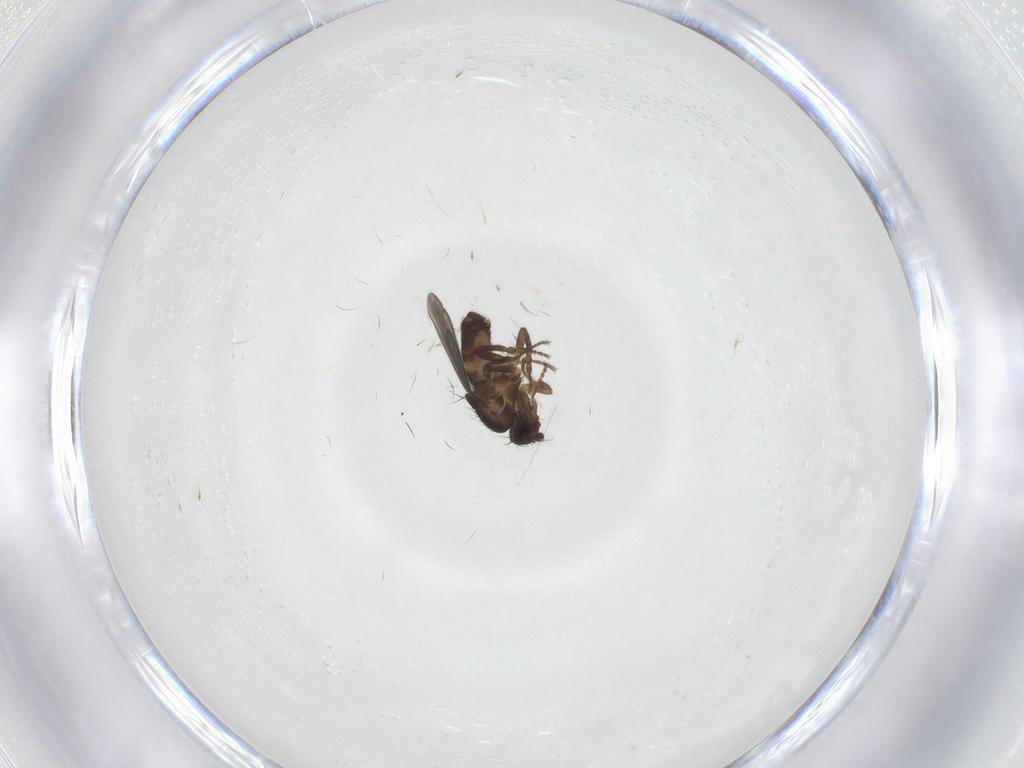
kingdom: Animalia
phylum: Arthropoda
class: Insecta
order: Diptera
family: Sphaeroceridae
